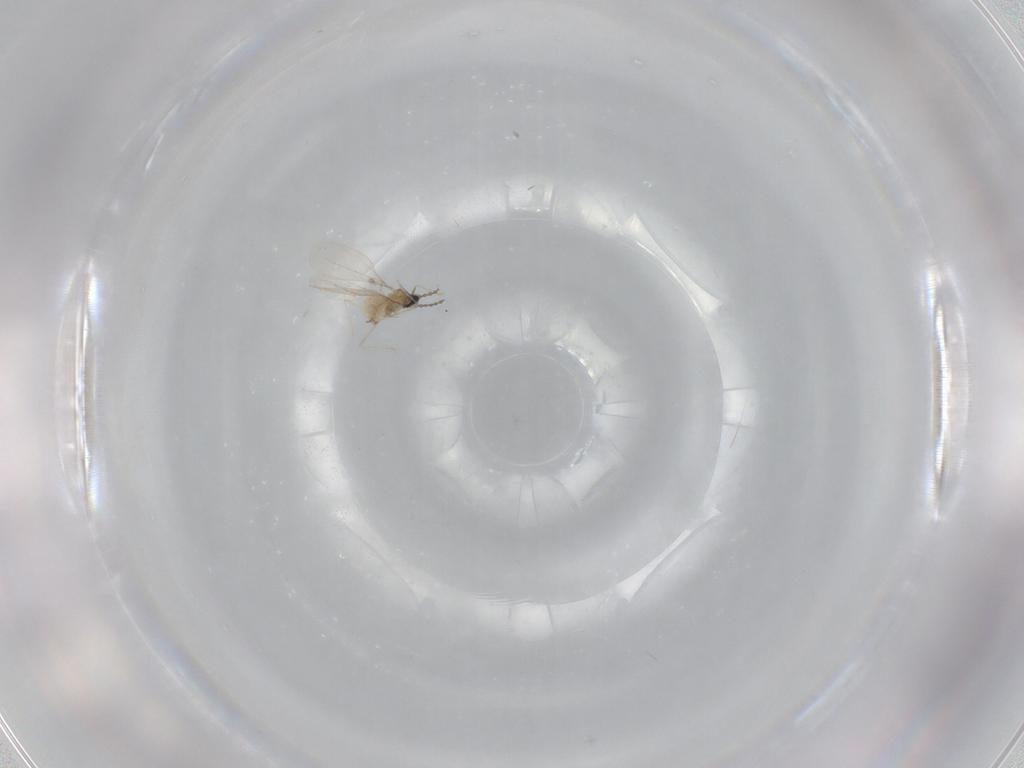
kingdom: Animalia
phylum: Arthropoda
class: Insecta
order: Diptera
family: Cecidomyiidae
